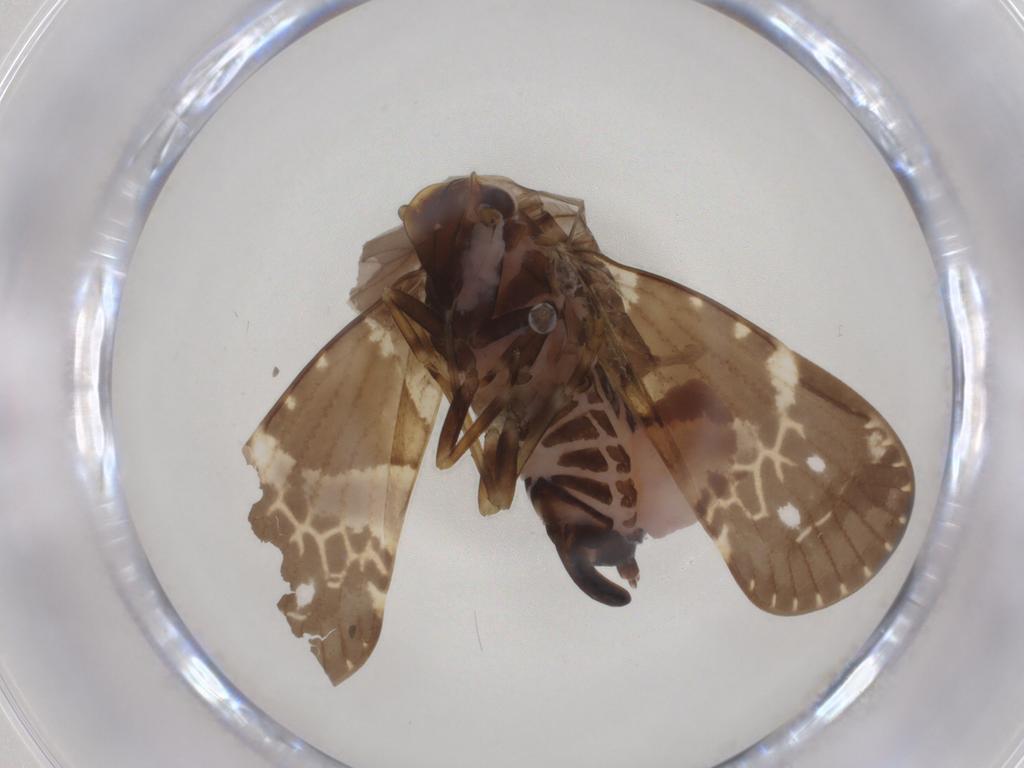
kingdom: Animalia
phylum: Arthropoda
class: Insecta
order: Hemiptera
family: Cixiidae
